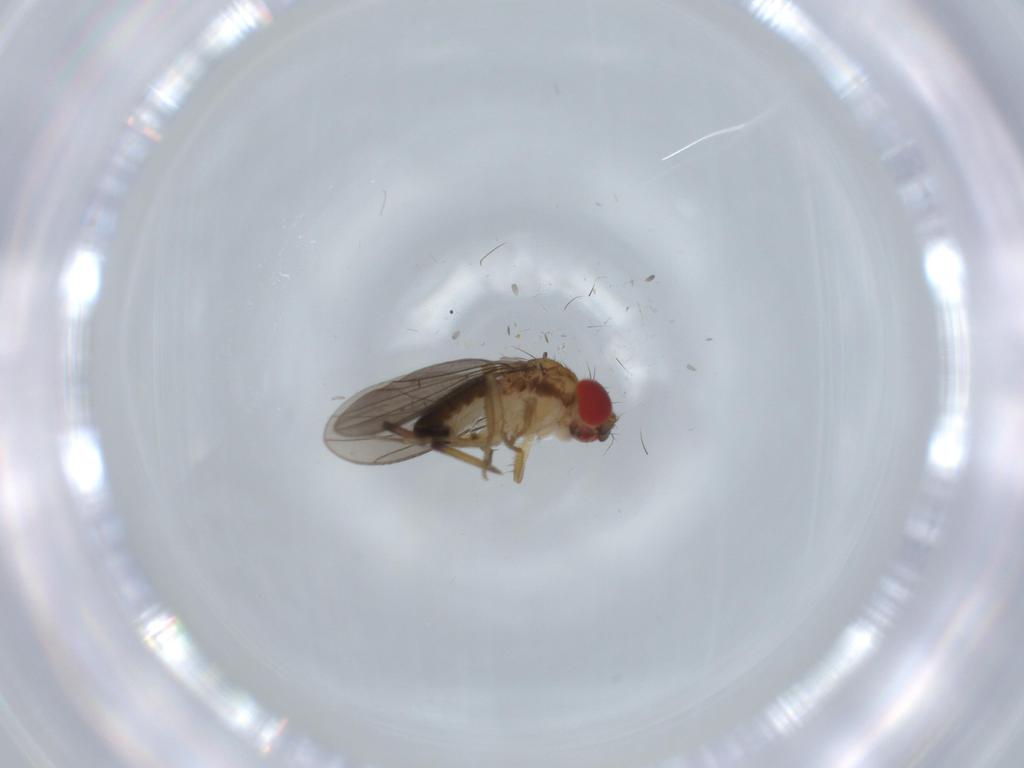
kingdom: Animalia
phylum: Arthropoda
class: Insecta
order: Diptera
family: Drosophilidae
